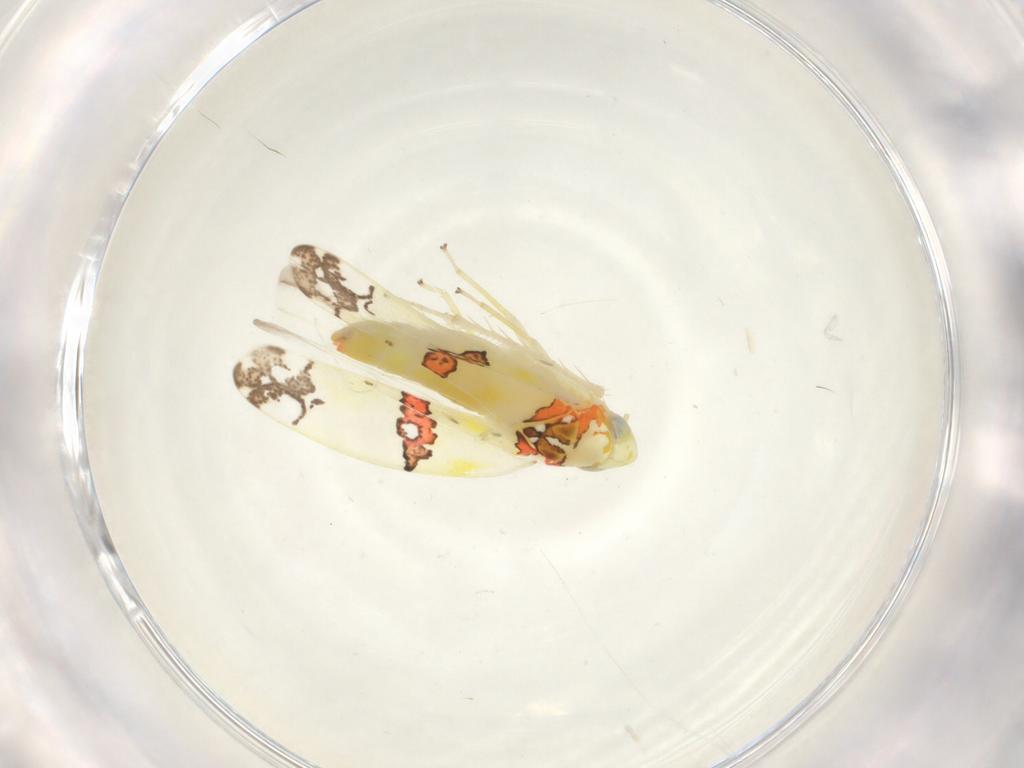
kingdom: Animalia
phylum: Arthropoda
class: Insecta
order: Hemiptera
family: Cicadellidae
